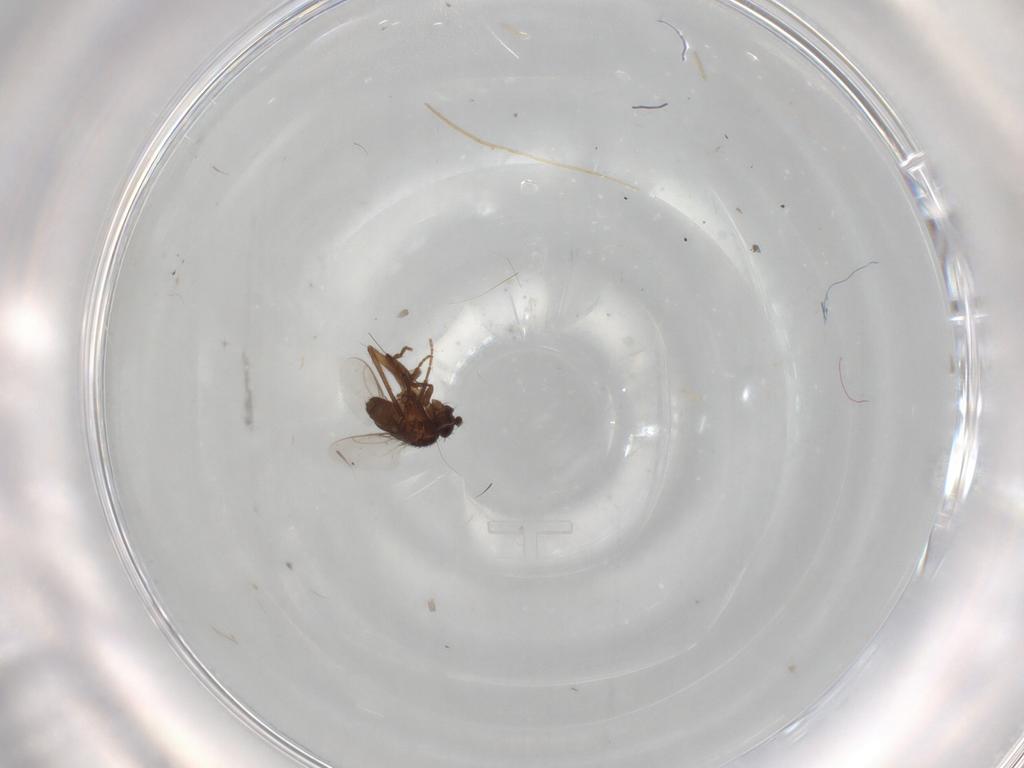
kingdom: Animalia
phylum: Arthropoda
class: Insecta
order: Diptera
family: Chironomidae
